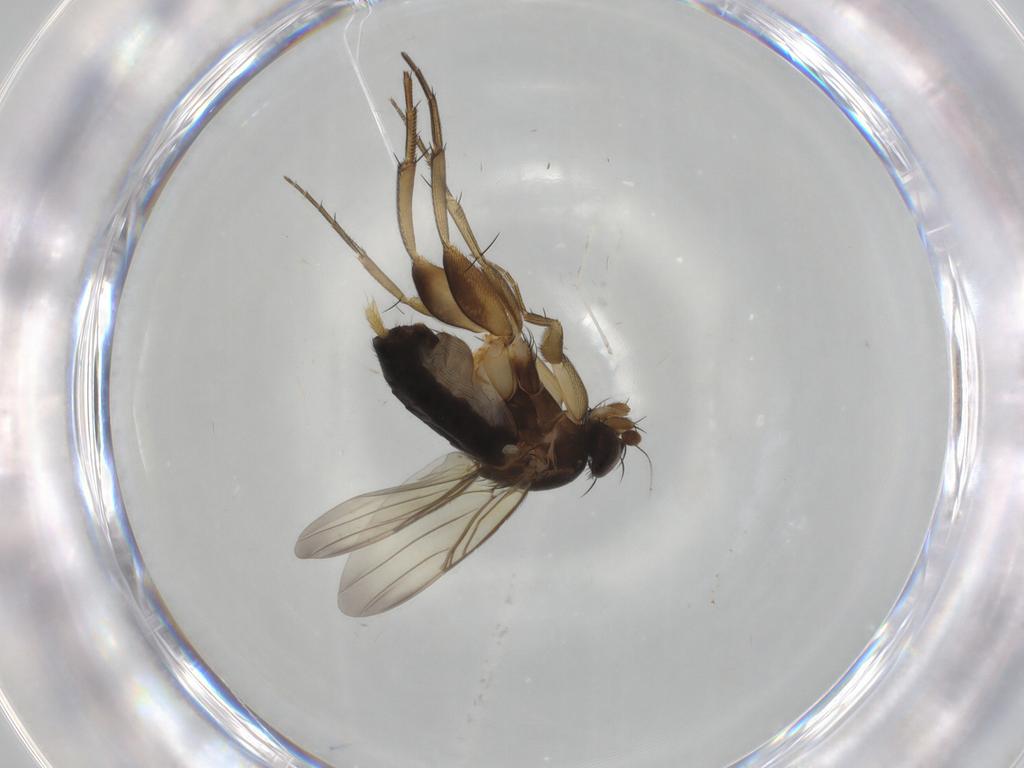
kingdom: Animalia
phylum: Arthropoda
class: Insecta
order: Diptera
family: Phoridae
